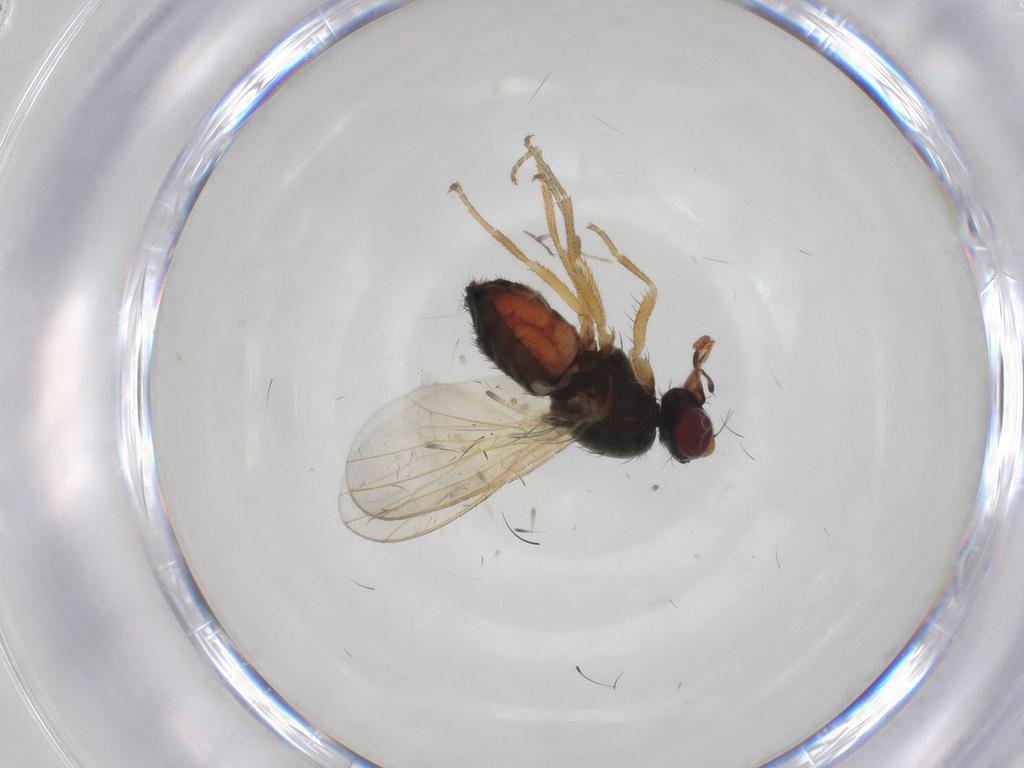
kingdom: Animalia
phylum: Arthropoda
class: Insecta
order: Diptera
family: Heleomyzidae
